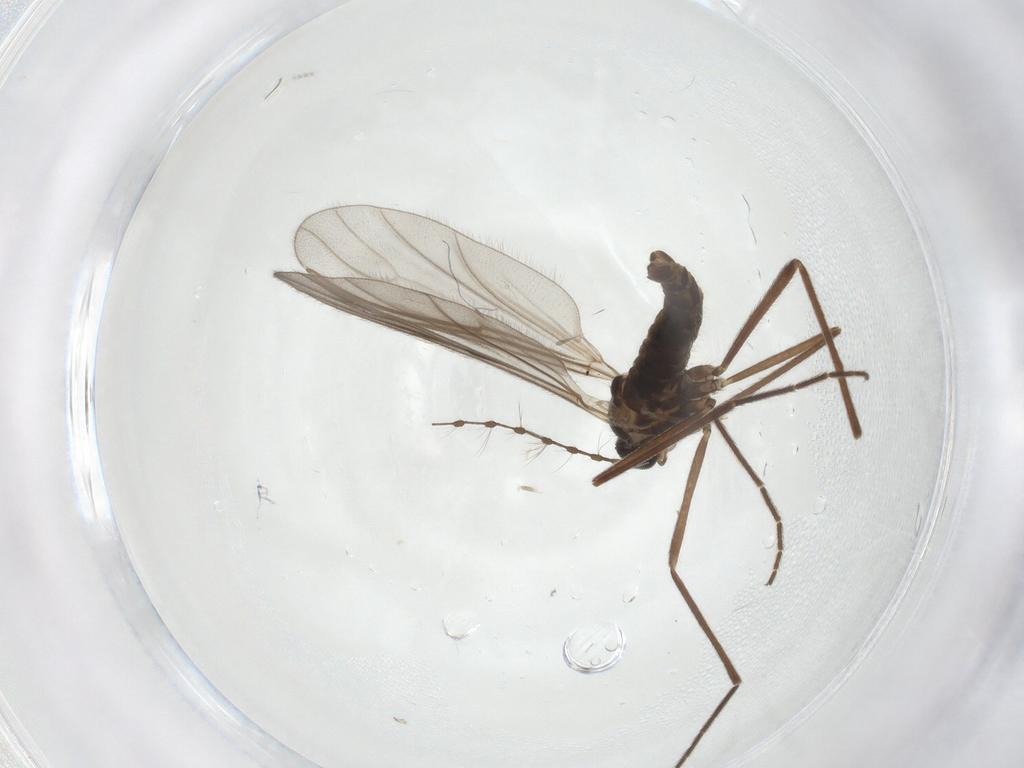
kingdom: Animalia
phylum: Arthropoda
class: Insecta
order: Diptera
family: Cecidomyiidae
